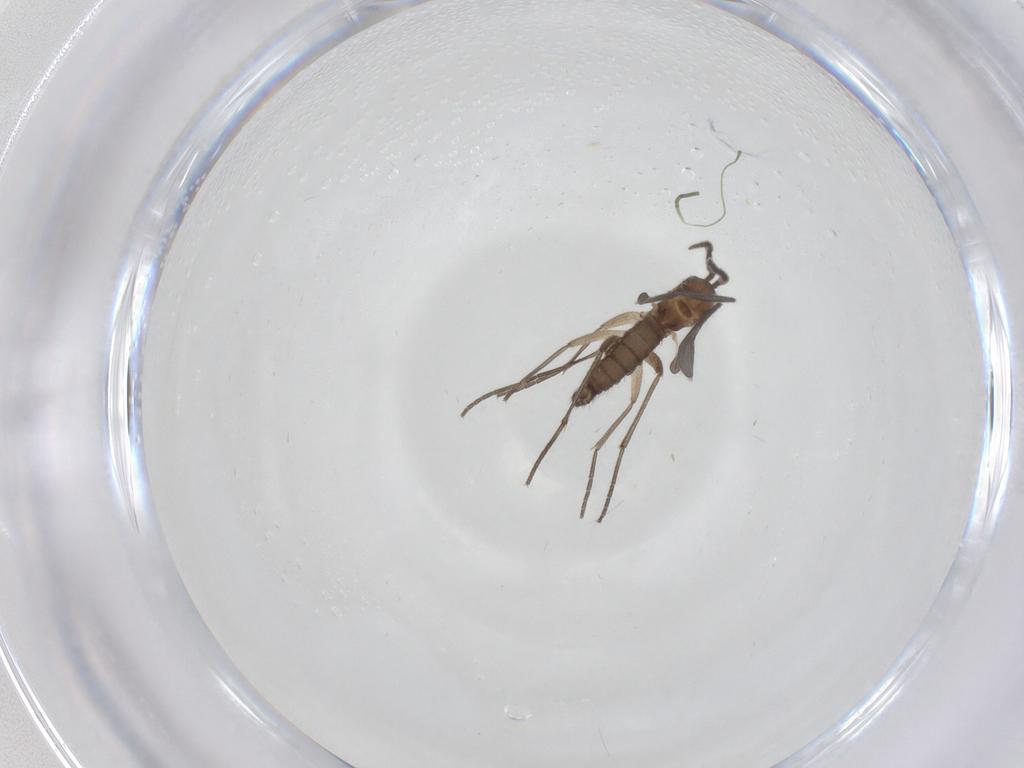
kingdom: Animalia
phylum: Arthropoda
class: Insecta
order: Diptera
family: Sciaridae
